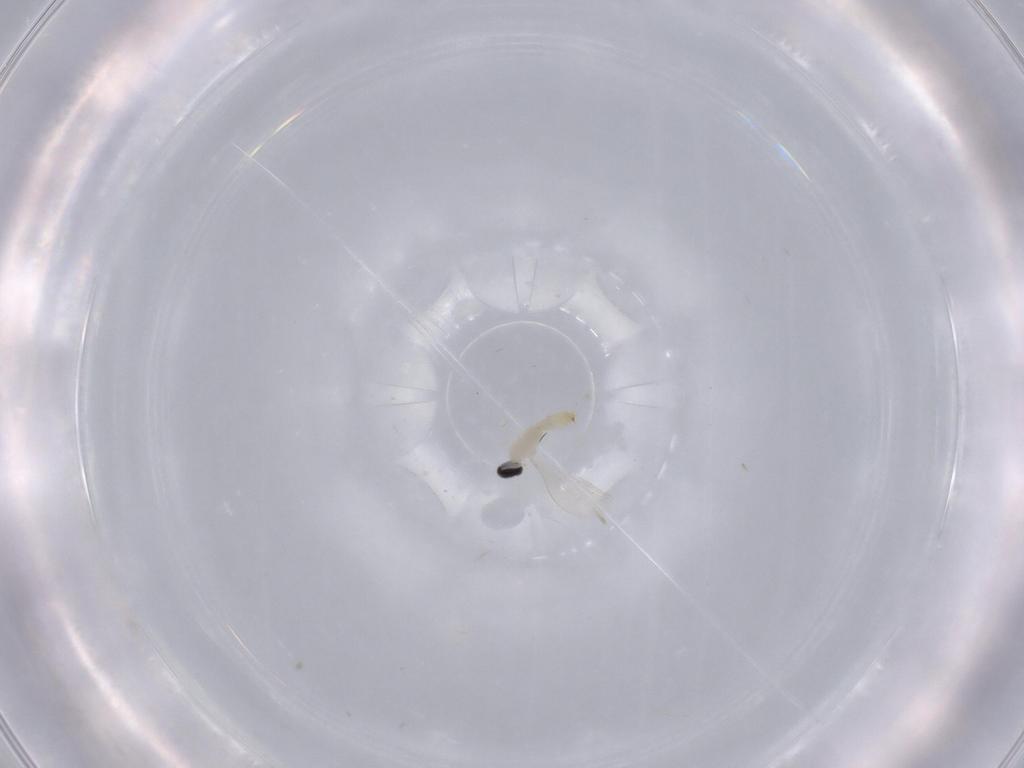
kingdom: Animalia
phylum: Arthropoda
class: Insecta
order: Diptera
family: Cecidomyiidae
